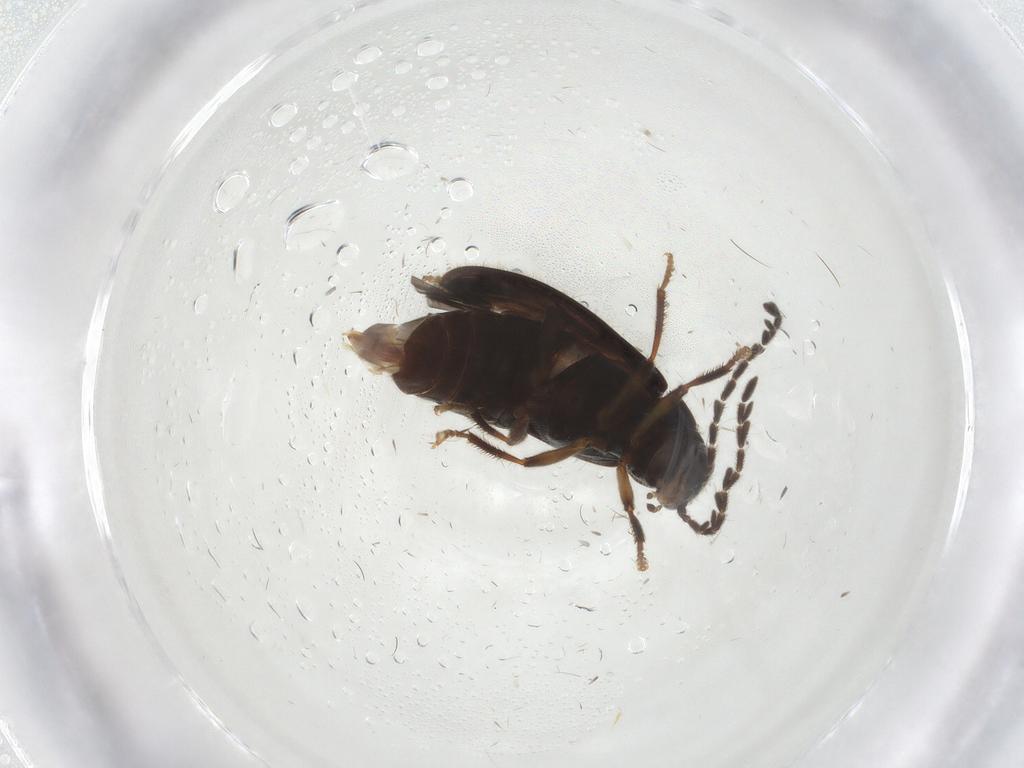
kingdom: Animalia
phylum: Arthropoda
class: Insecta
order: Coleoptera
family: Ptilodactylidae
